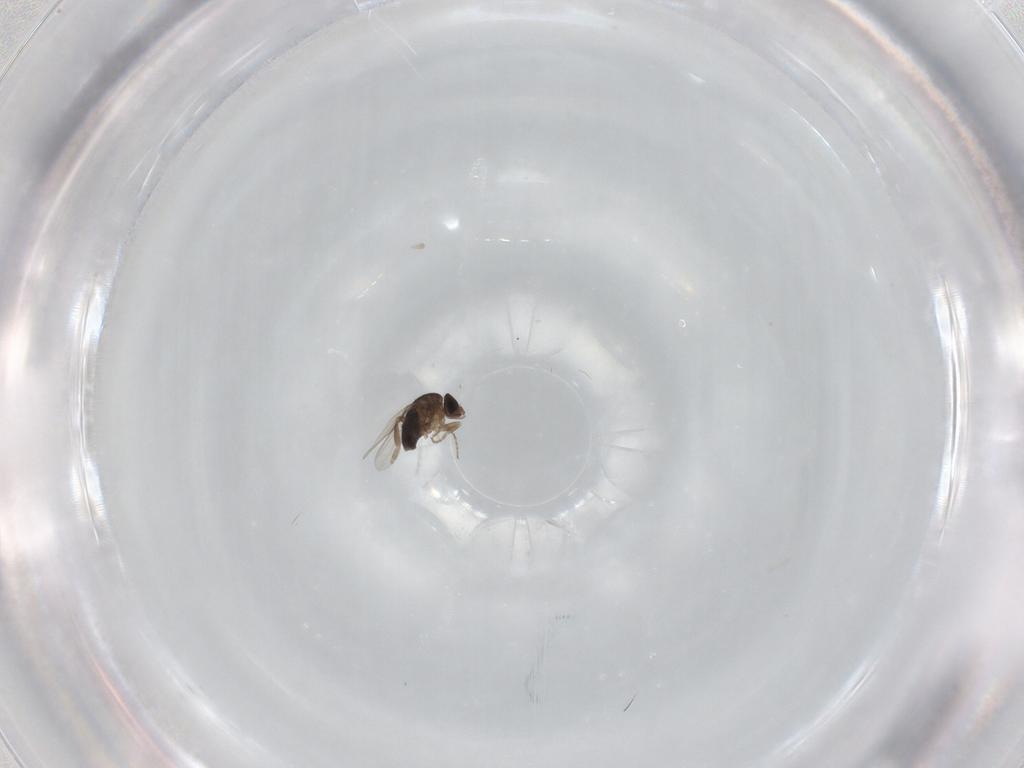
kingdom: Animalia
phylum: Arthropoda
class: Insecta
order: Diptera
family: Phoridae
